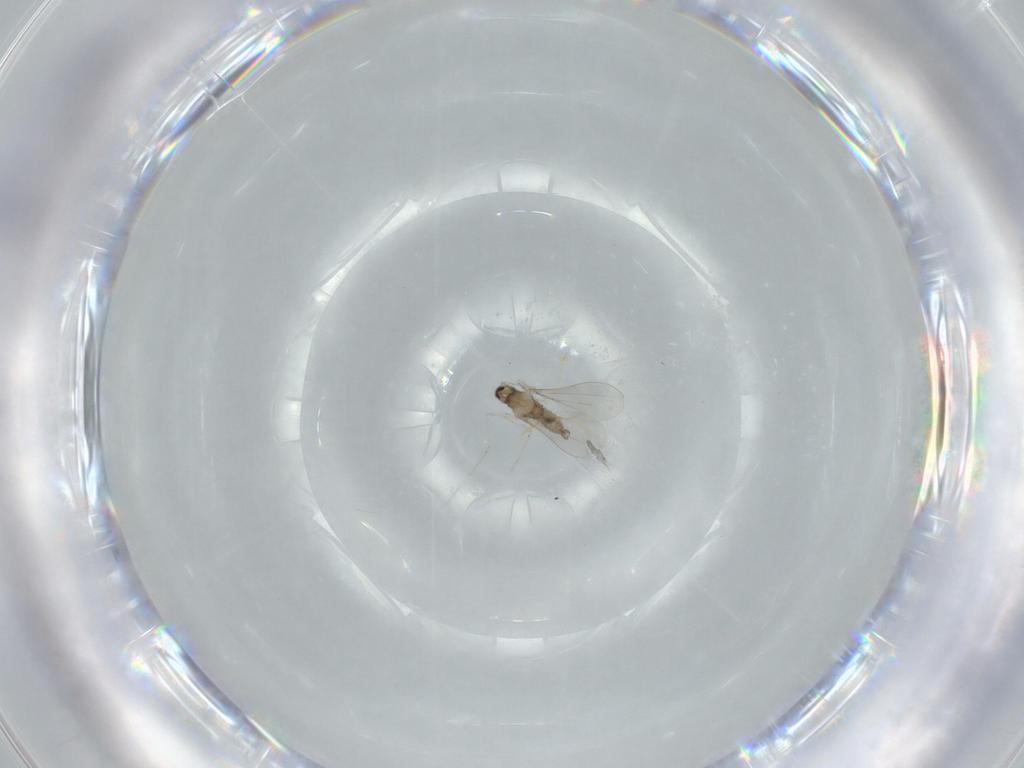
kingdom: Animalia
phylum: Arthropoda
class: Insecta
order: Diptera
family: Cecidomyiidae
